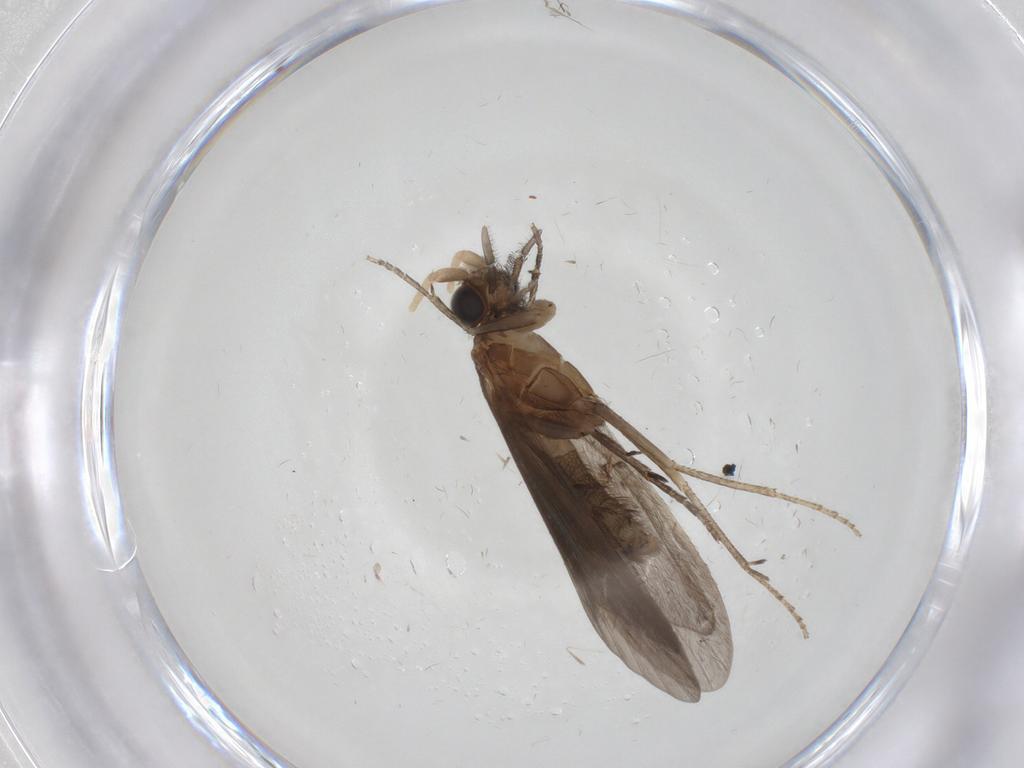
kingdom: Animalia
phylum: Arthropoda
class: Insecta
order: Trichoptera
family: Helicopsychidae
